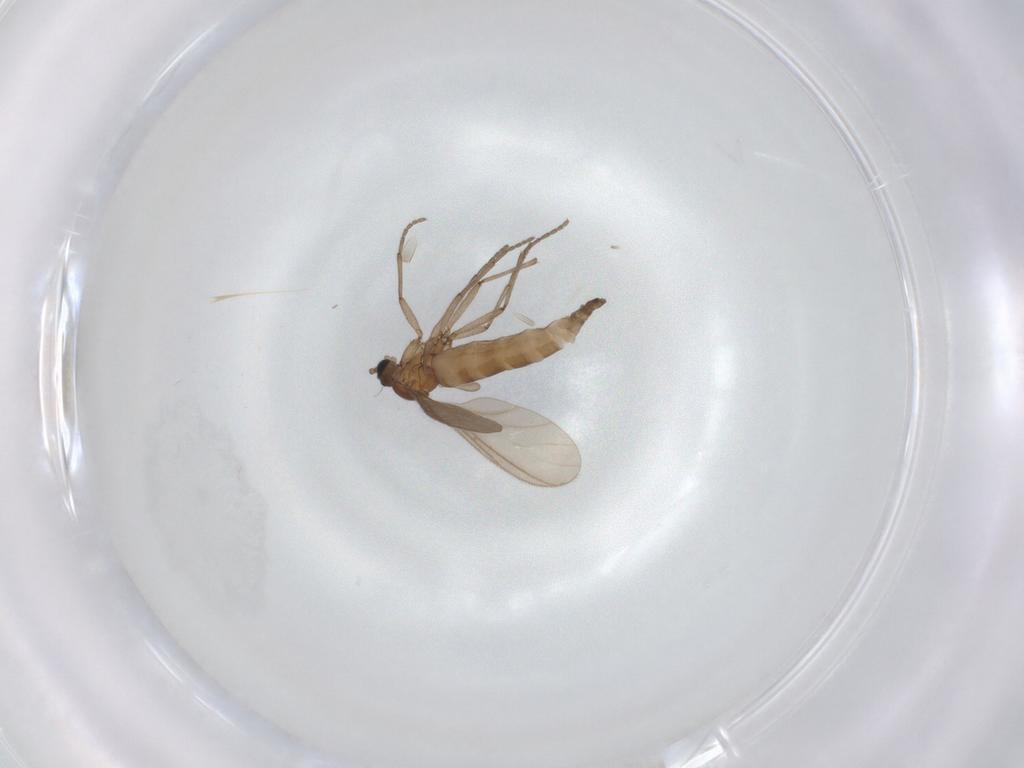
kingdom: Animalia
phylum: Arthropoda
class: Insecta
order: Diptera
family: Sciaridae
